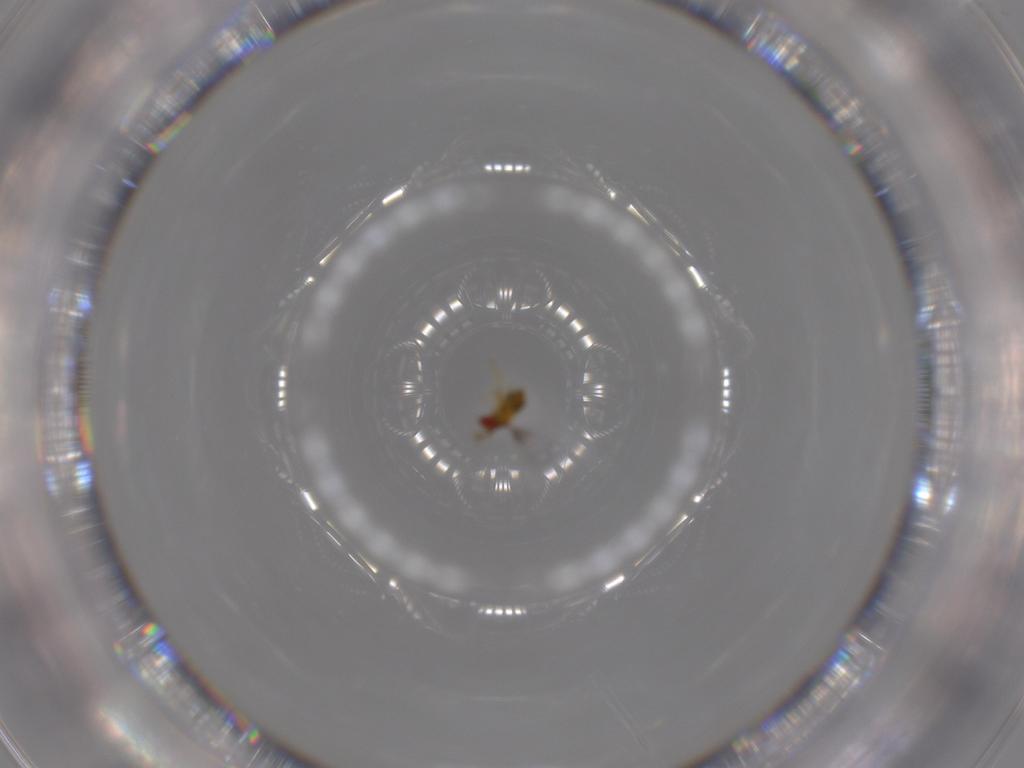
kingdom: Animalia
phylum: Arthropoda
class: Insecta
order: Hymenoptera
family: Trichogrammatidae
